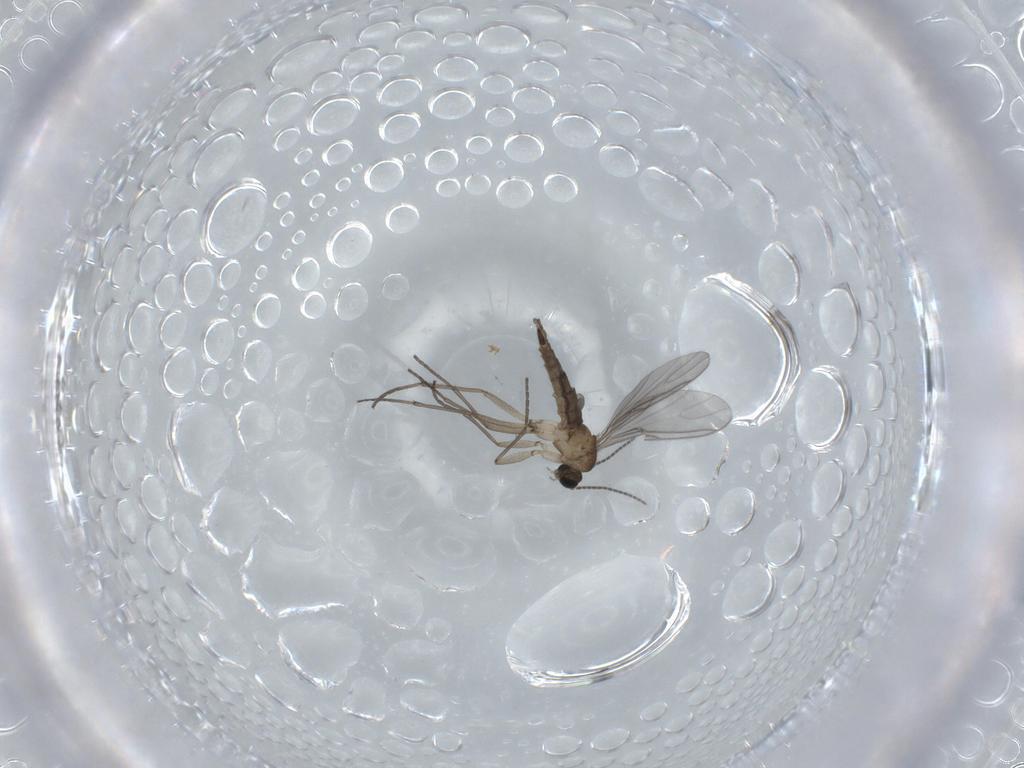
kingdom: Animalia
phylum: Arthropoda
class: Insecta
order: Diptera
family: Sciaridae
